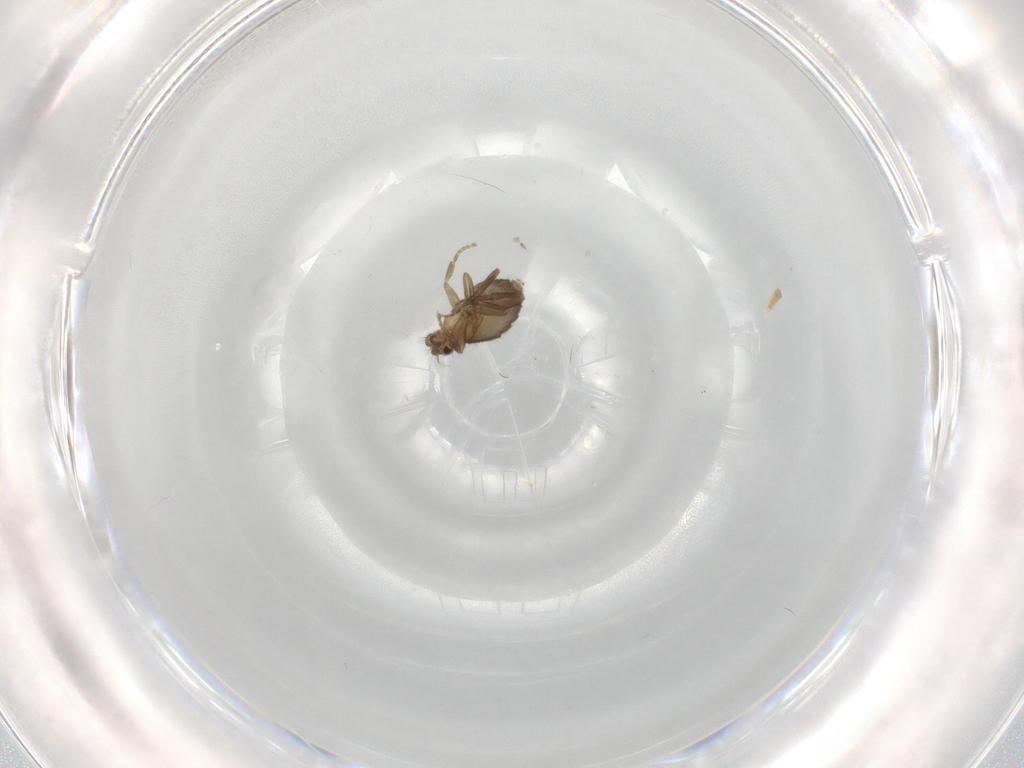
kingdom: Animalia
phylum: Arthropoda
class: Insecta
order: Diptera
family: Phoridae
